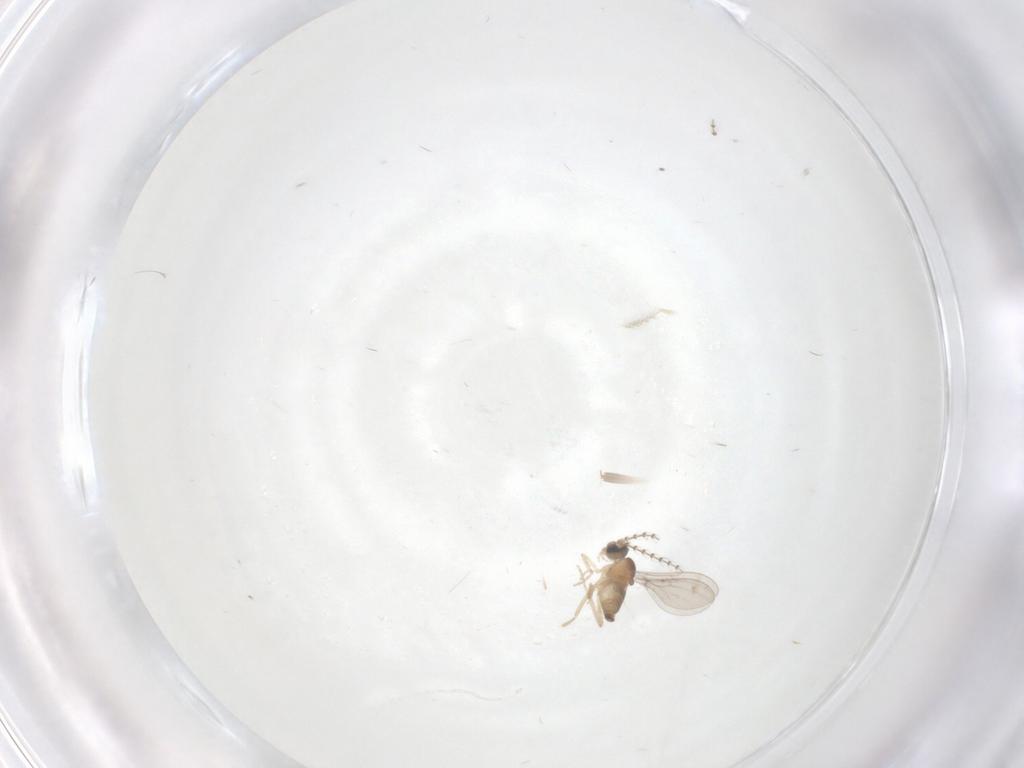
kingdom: Animalia
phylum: Arthropoda
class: Insecta
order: Diptera
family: Cecidomyiidae
